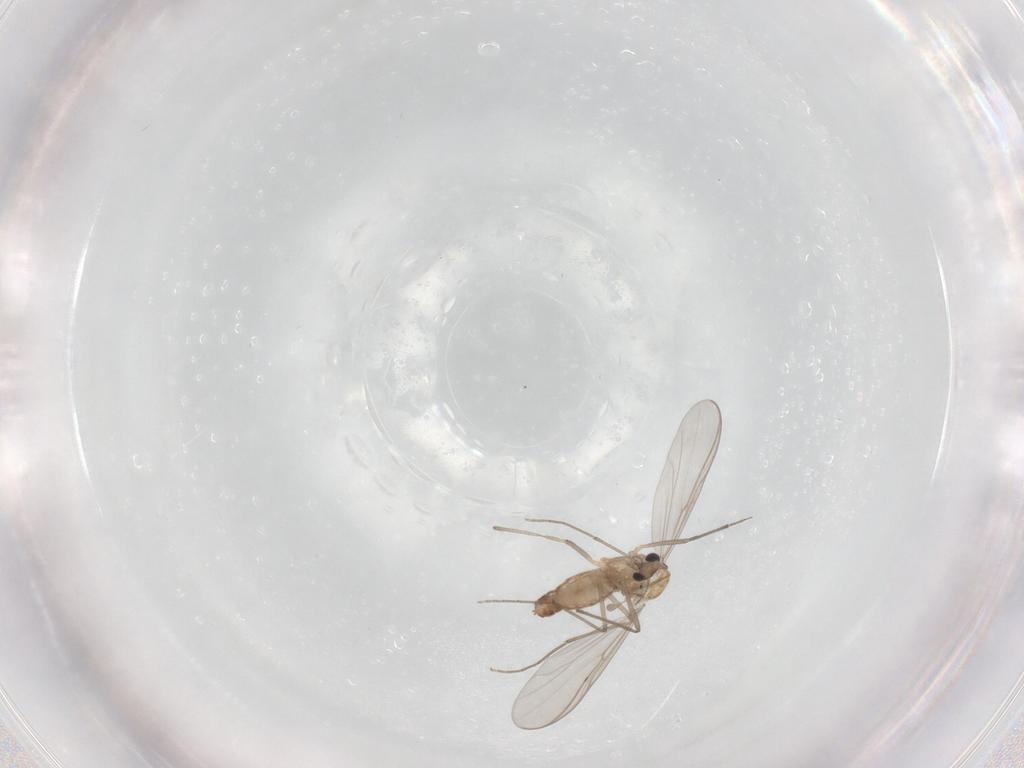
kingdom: Animalia
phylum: Arthropoda
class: Insecta
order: Diptera
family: Chironomidae
